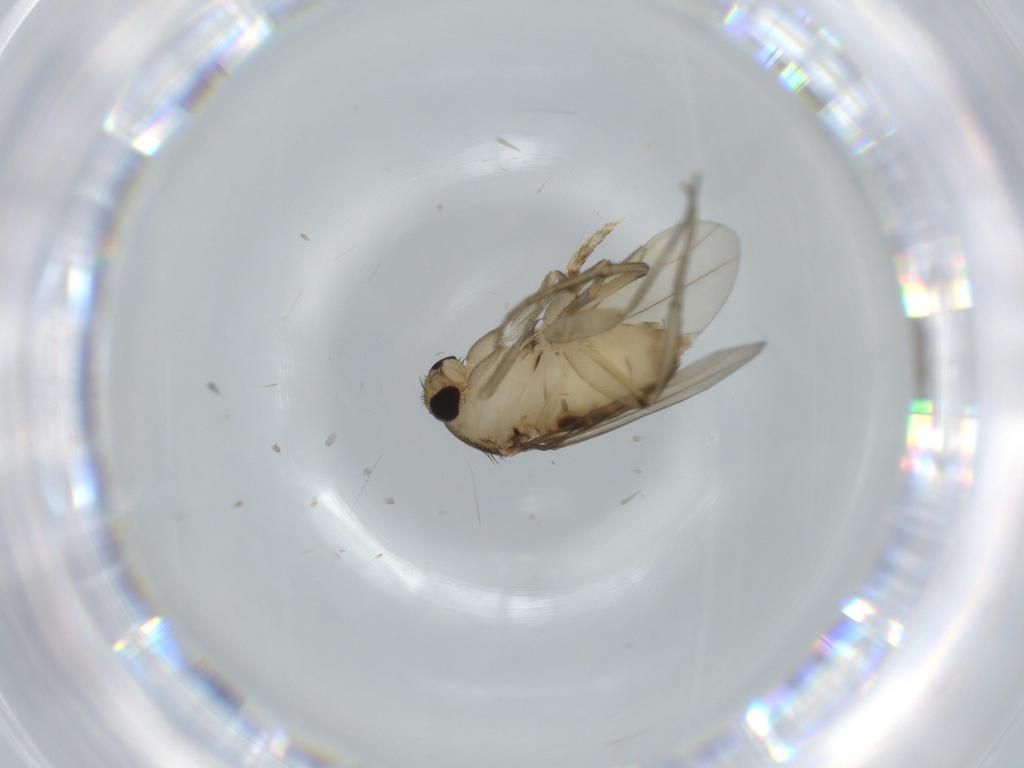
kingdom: Animalia
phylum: Arthropoda
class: Insecta
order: Diptera
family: Phoridae
